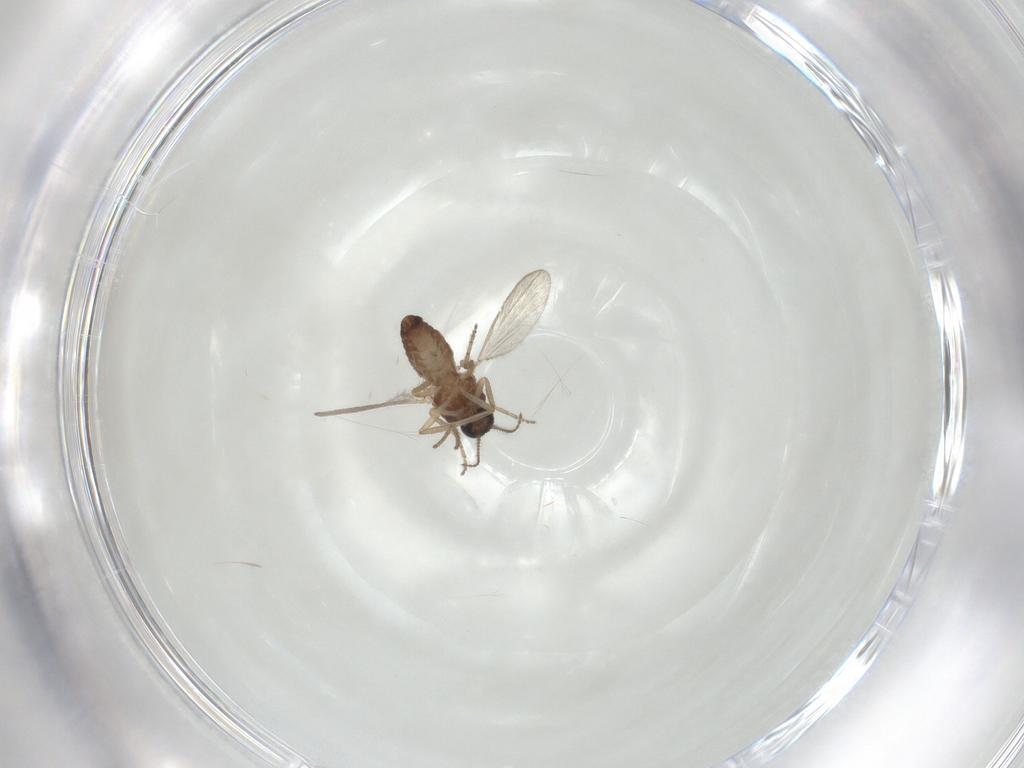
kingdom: Animalia
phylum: Arthropoda
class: Insecta
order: Diptera
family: Ceratopogonidae
